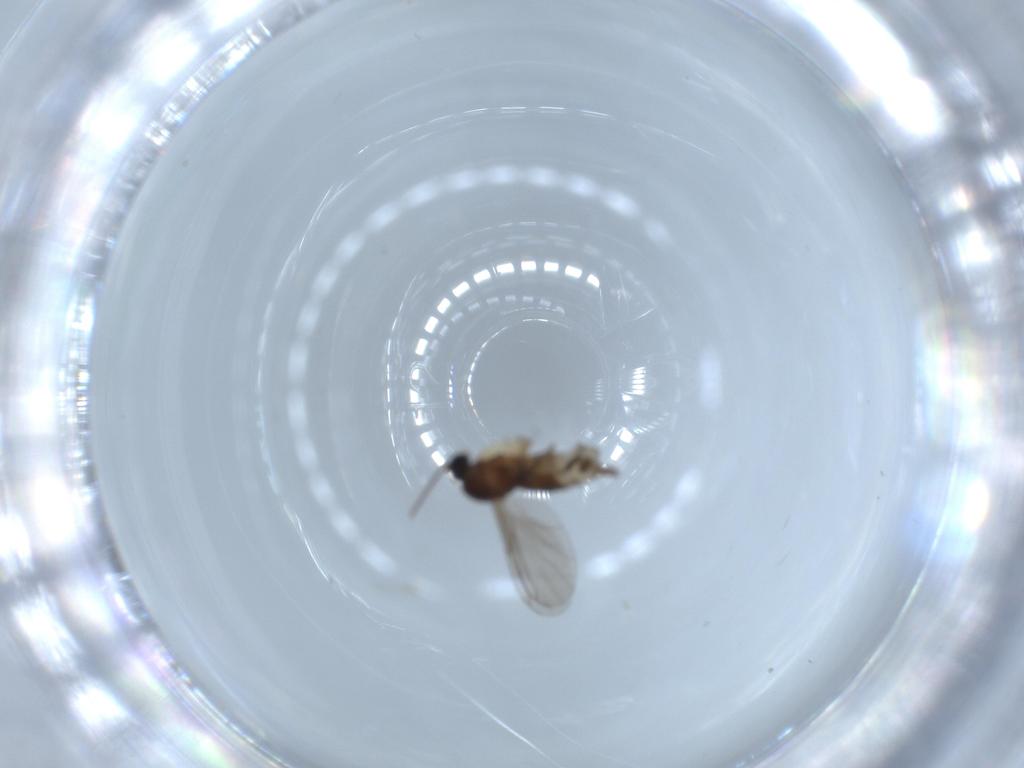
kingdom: Animalia
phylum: Arthropoda
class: Insecta
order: Diptera
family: Sciaridae
